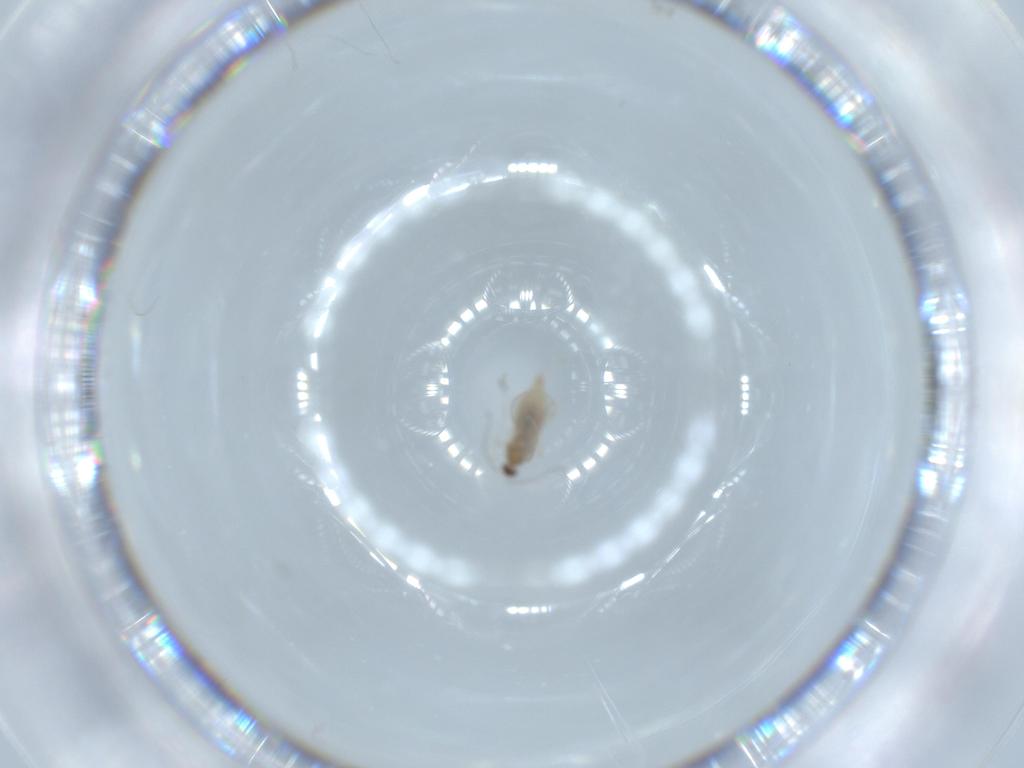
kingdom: Animalia
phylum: Arthropoda
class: Insecta
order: Diptera
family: Cecidomyiidae
